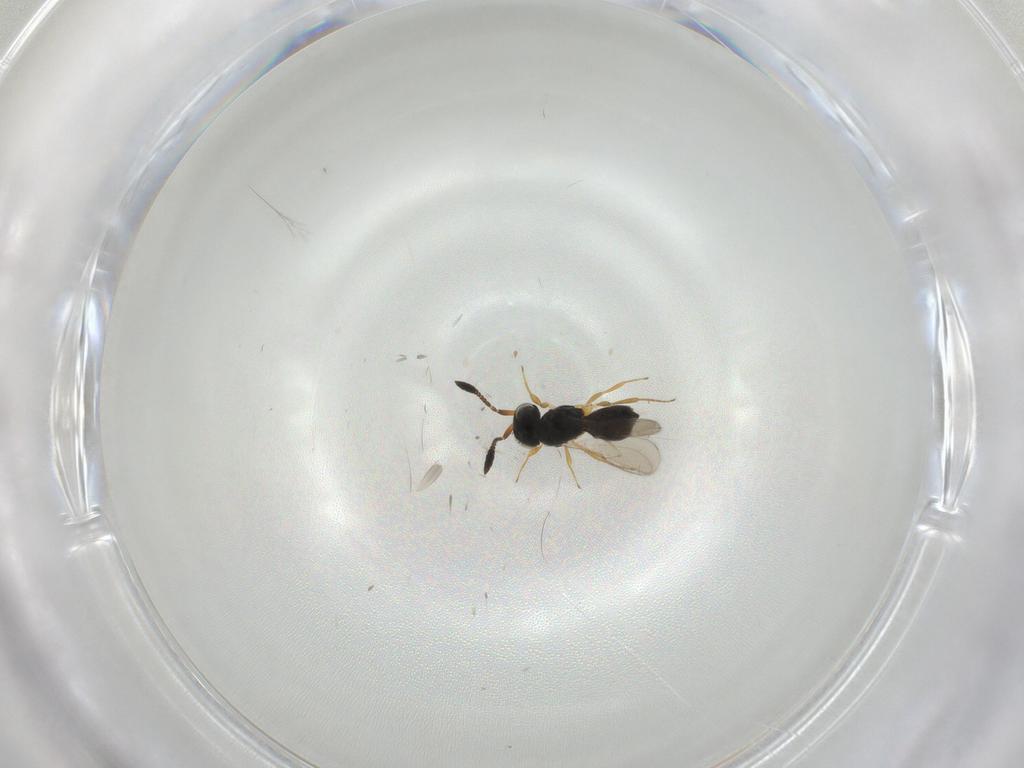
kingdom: Animalia
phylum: Arthropoda
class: Insecta
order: Hymenoptera
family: Scelionidae
